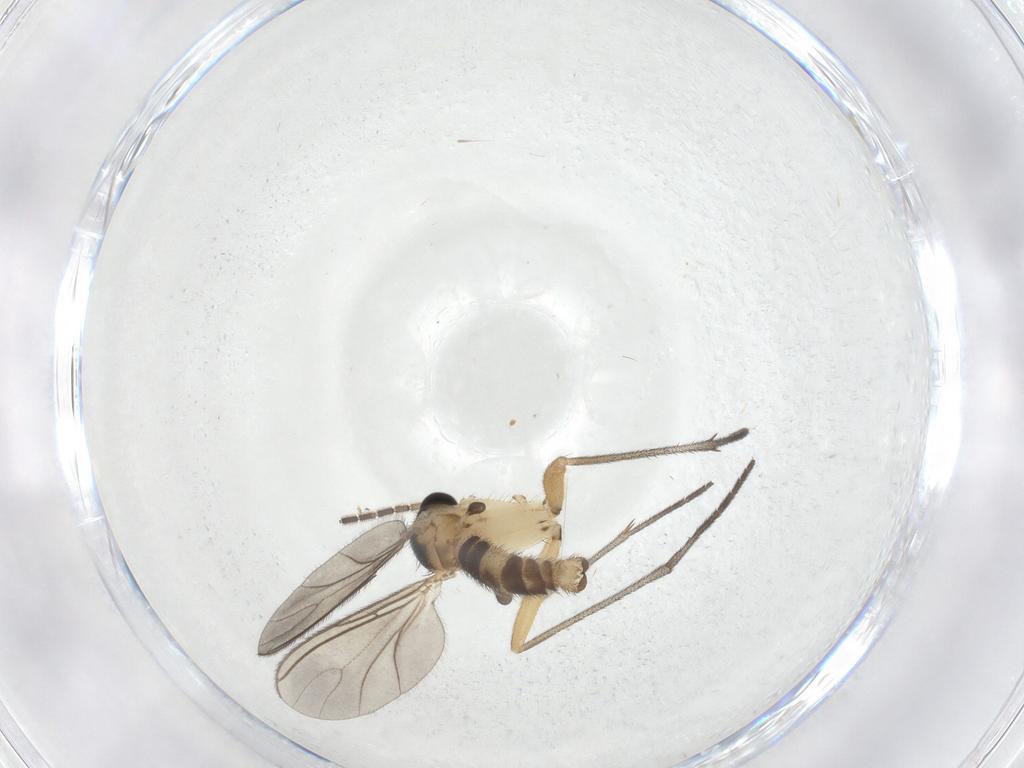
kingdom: Animalia
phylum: Arthropoda
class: Insecta
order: Diptera
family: Sciaridae
